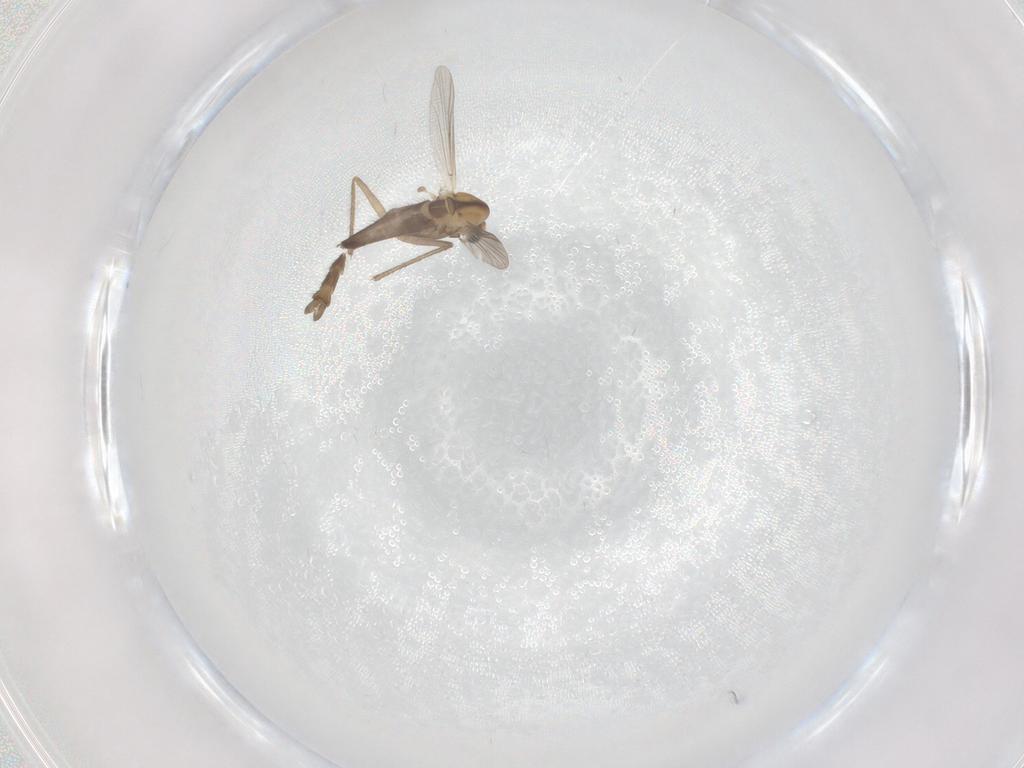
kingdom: Animalia
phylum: Arthropoda
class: Insecta
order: Diptera
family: Chironomidae
